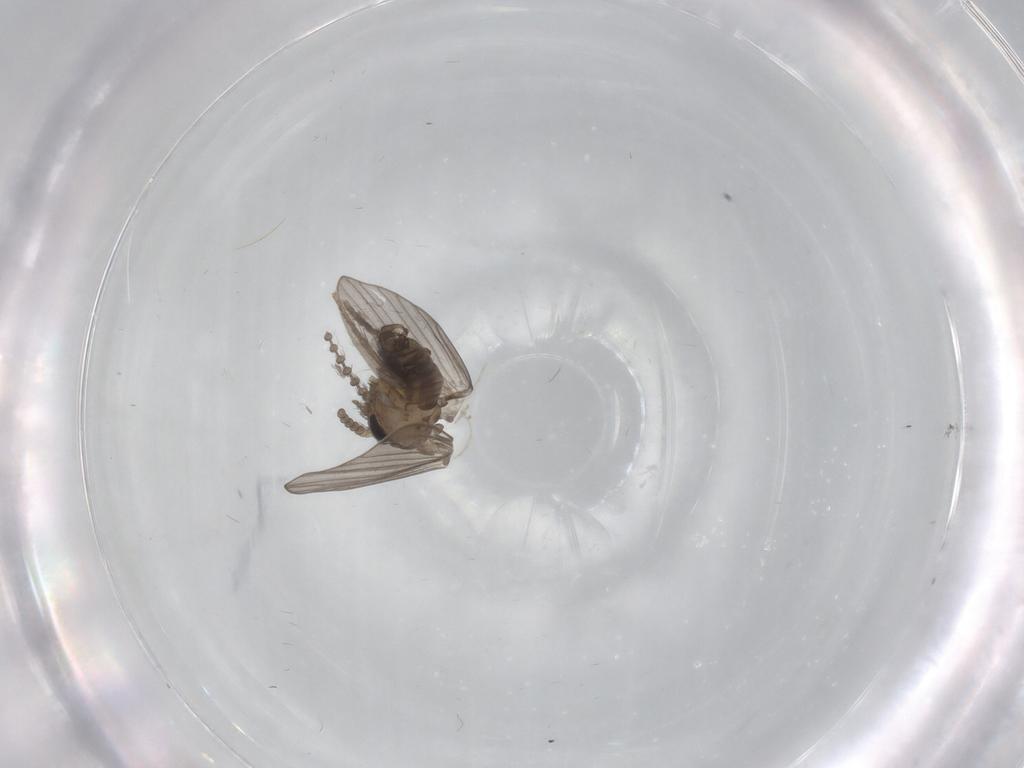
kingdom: Animalia
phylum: Arthropoda
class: Insecta
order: Diptera
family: Psychodidae
